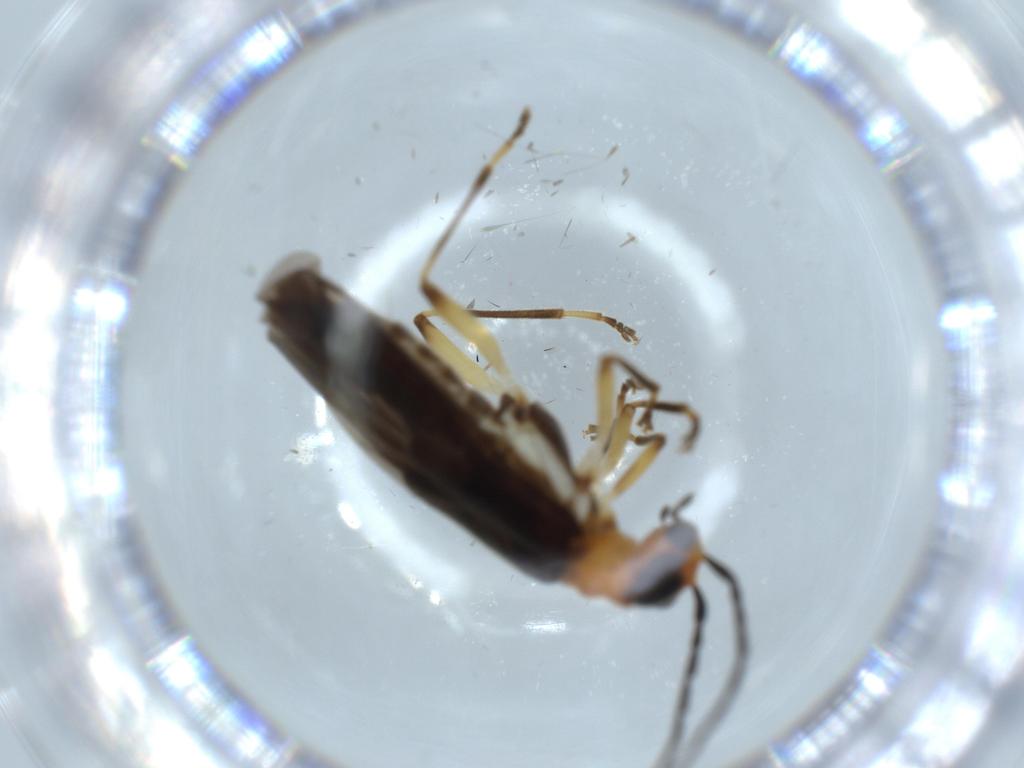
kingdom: Animalia
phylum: Arthropoda
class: Insecta
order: Coleoptera
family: Cantharidae
